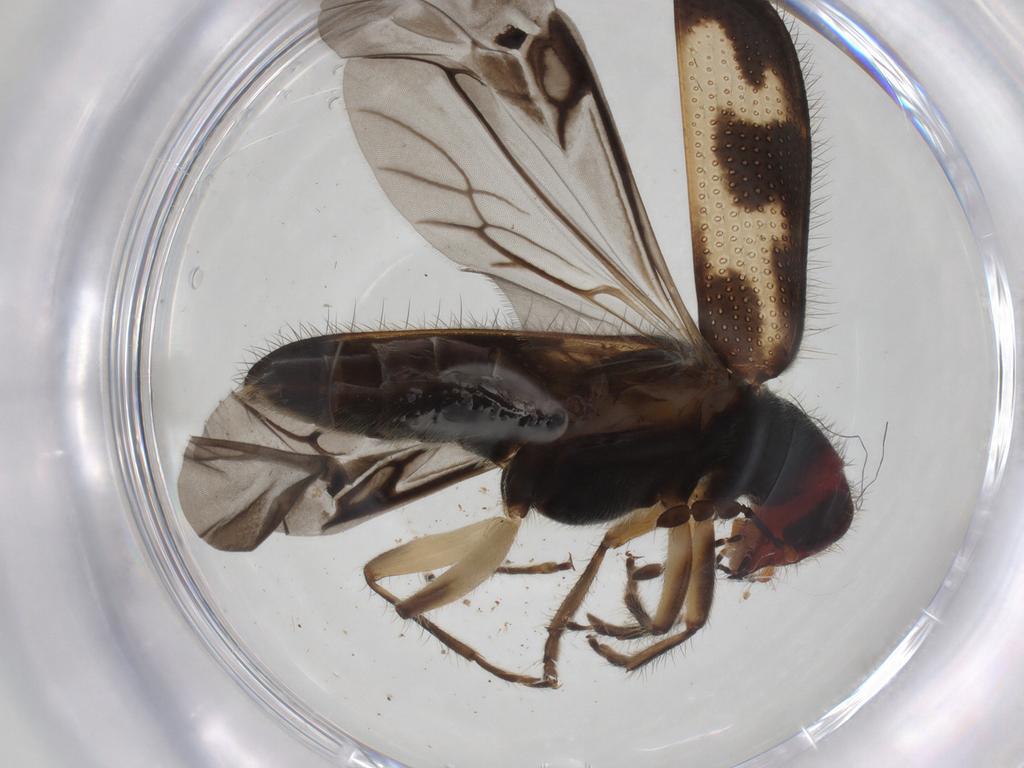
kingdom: Animalia
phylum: Arthropoda
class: Insecta
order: Coleoptera
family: Cleridae
